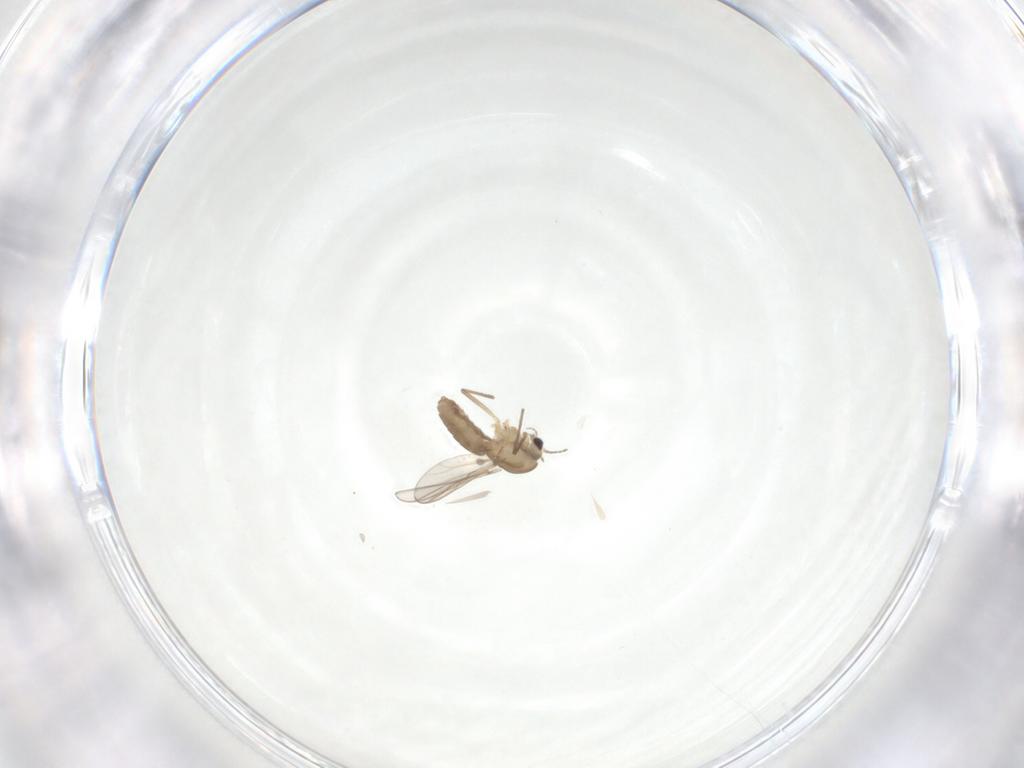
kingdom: Animalia
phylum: Arthropoda
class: Insecta
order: Diptera
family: Chironomidae
